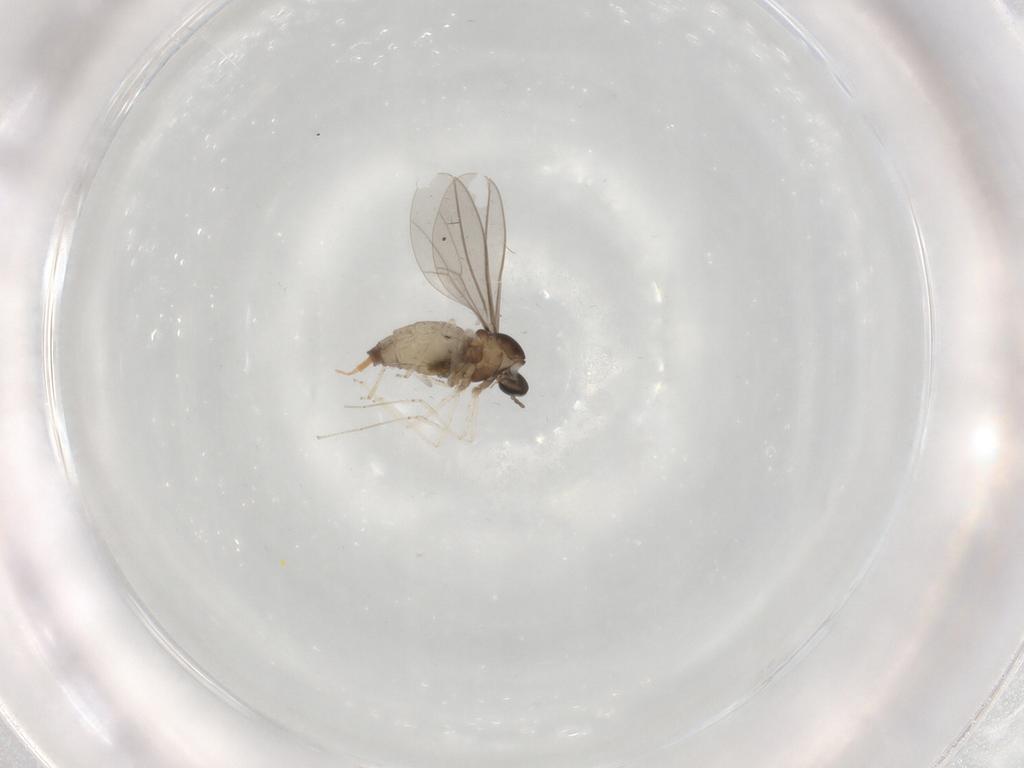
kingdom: Animalia
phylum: Arthropoda
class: Insecta
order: Diptera
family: Cecidomyiidae
